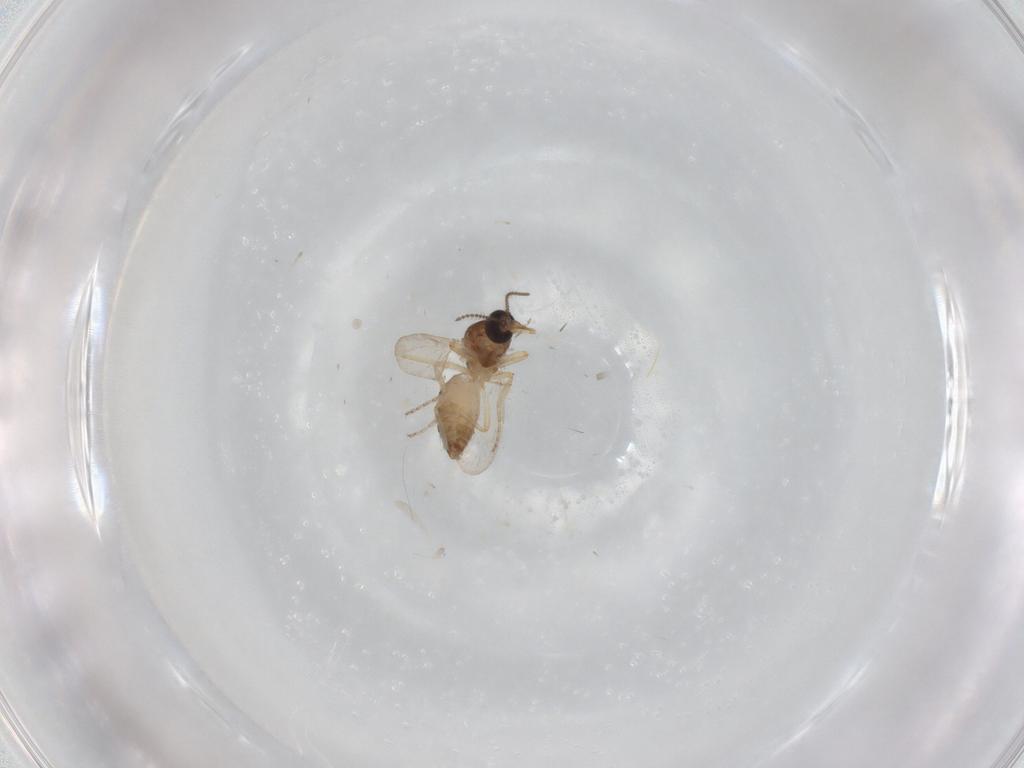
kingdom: Animalia
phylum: Arthropoda
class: Insecta
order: Diptera
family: Ceratopogonidae
